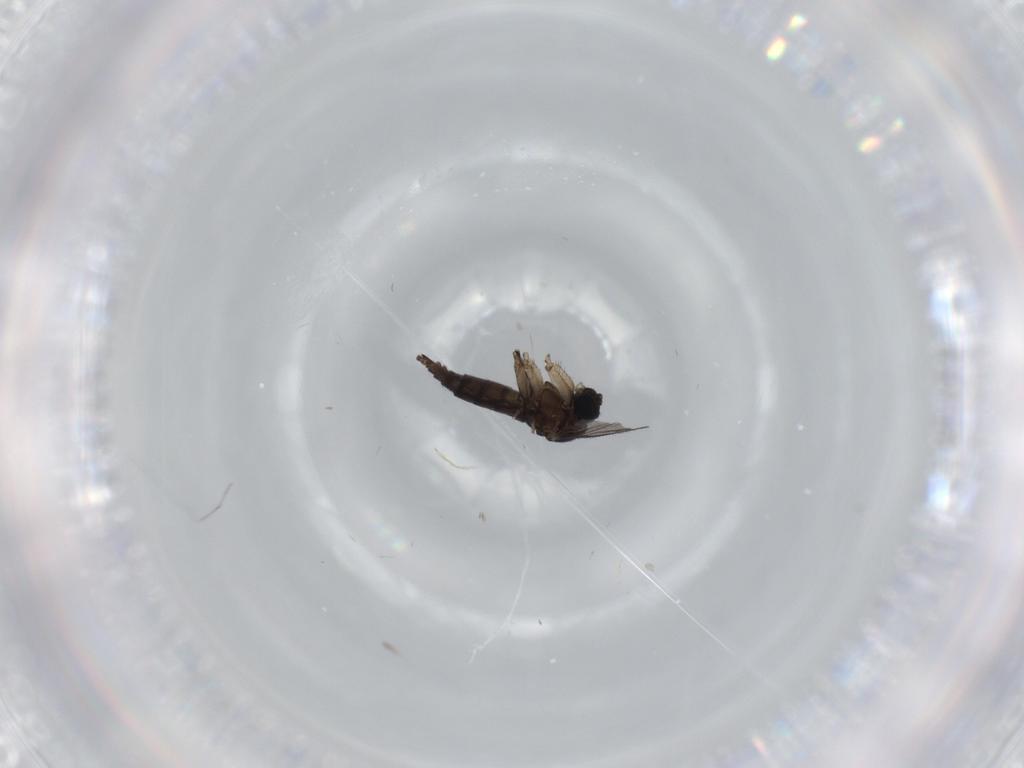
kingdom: Animalia
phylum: Arthropoda
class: Insecta
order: Diptera
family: Sciaridae
